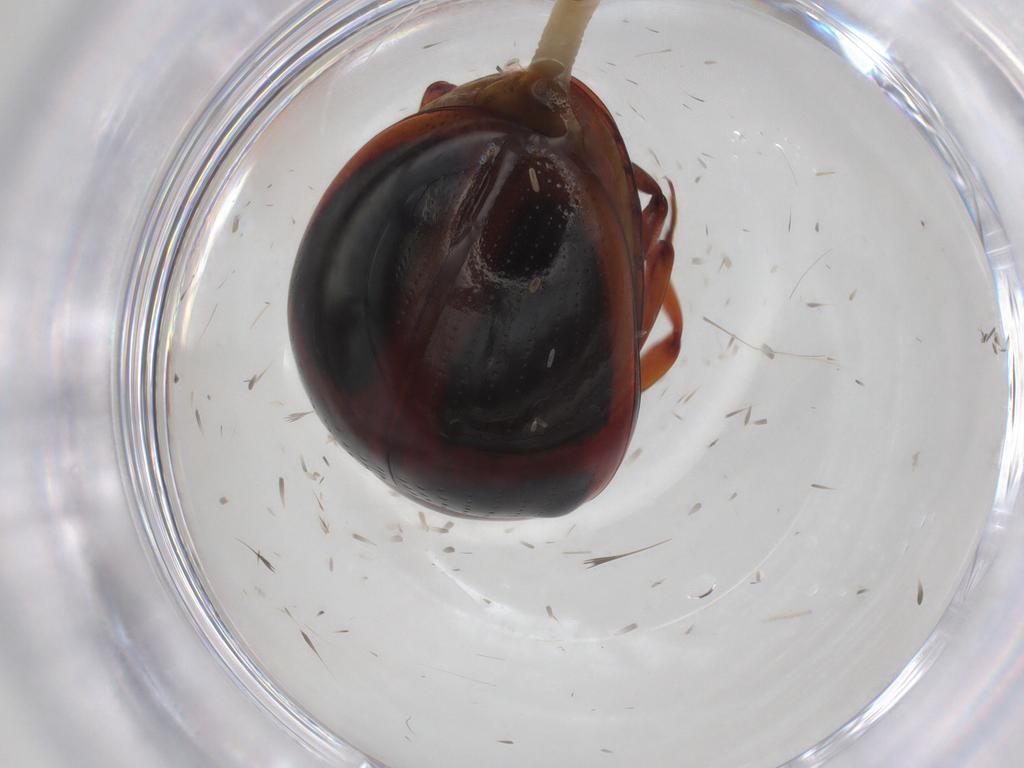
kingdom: Animalia
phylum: Arthropoda
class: Insecta
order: Coleoptera
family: Zopheridae
